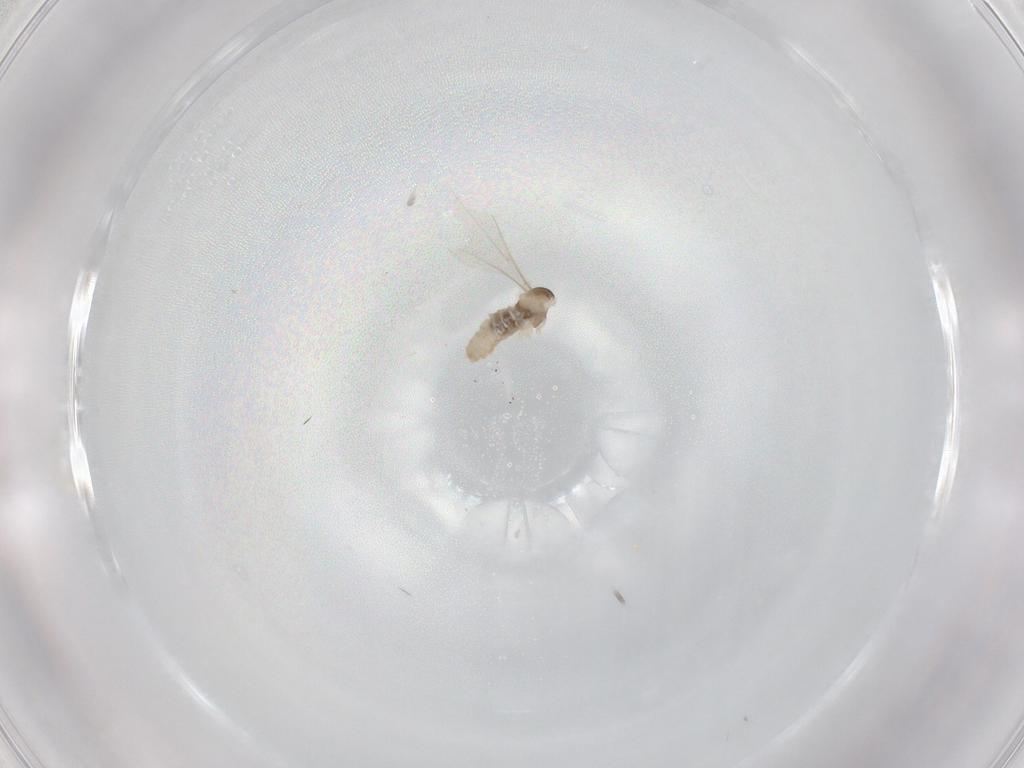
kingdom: Animalia
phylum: Arthropoda
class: Insecta
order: Diptera
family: Cecidomyiidae
